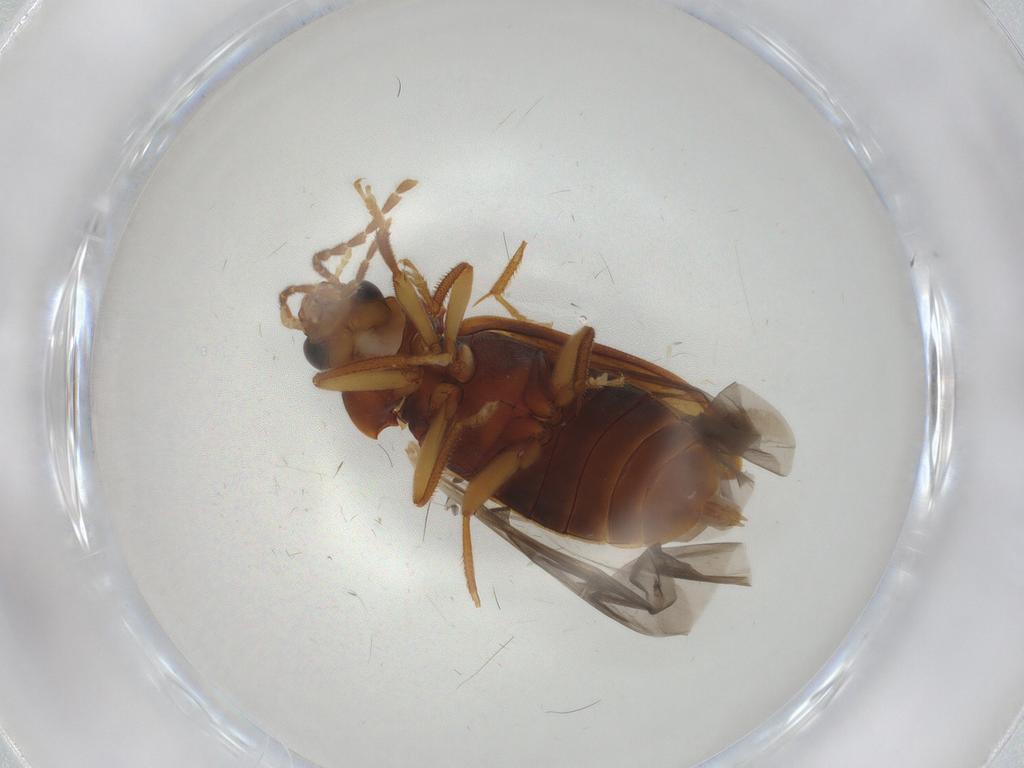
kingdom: Animalia
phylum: Arthropoda
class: Insecta
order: Coleoptera
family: Ptilodactylidae
